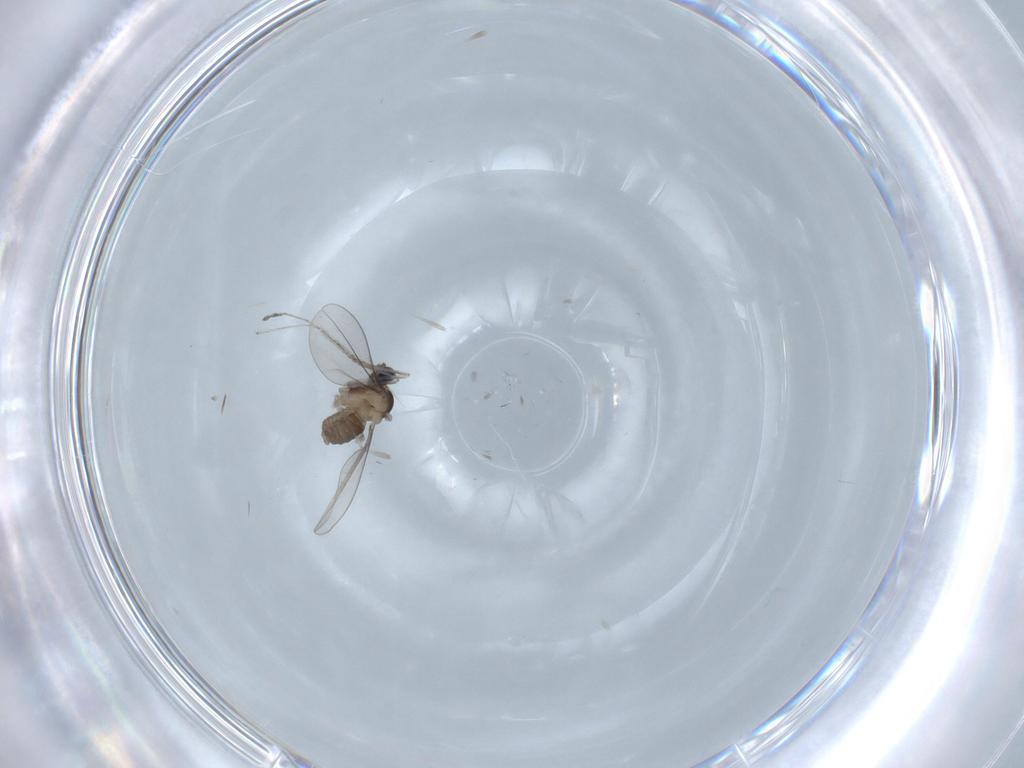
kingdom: Animalia
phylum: Arthropoda
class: Insecta
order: Diptera
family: Cecidomyiidae
